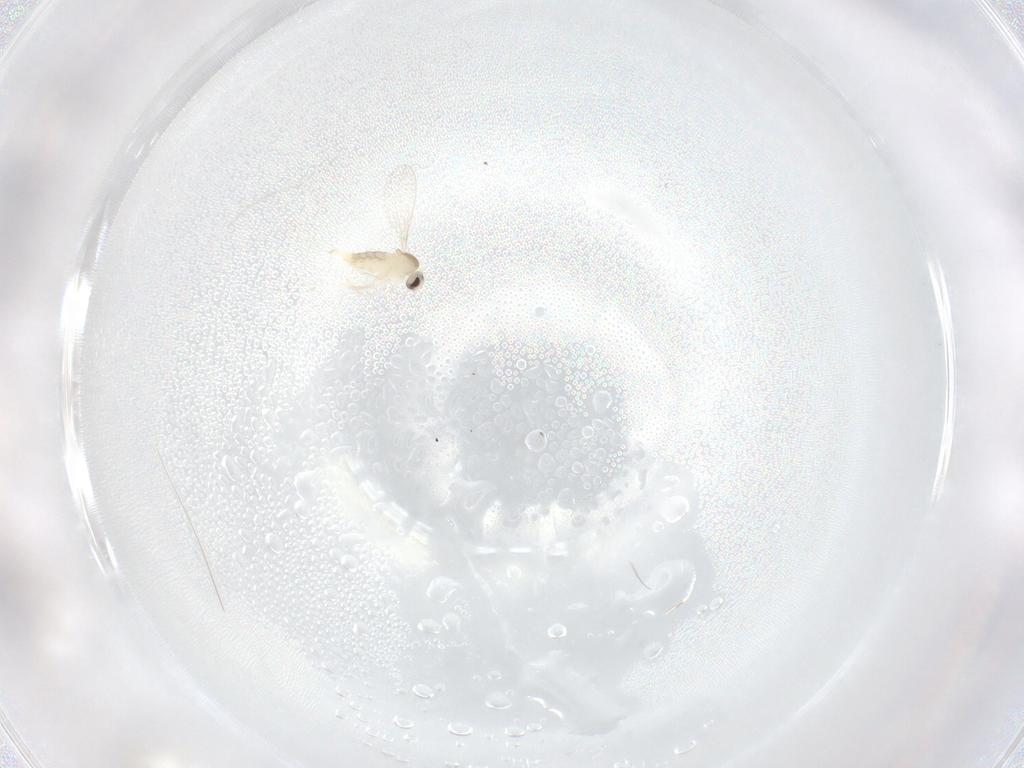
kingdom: Animalia
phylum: Arthropoda
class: Insecta
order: Diptera
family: Cecidomyiidae
